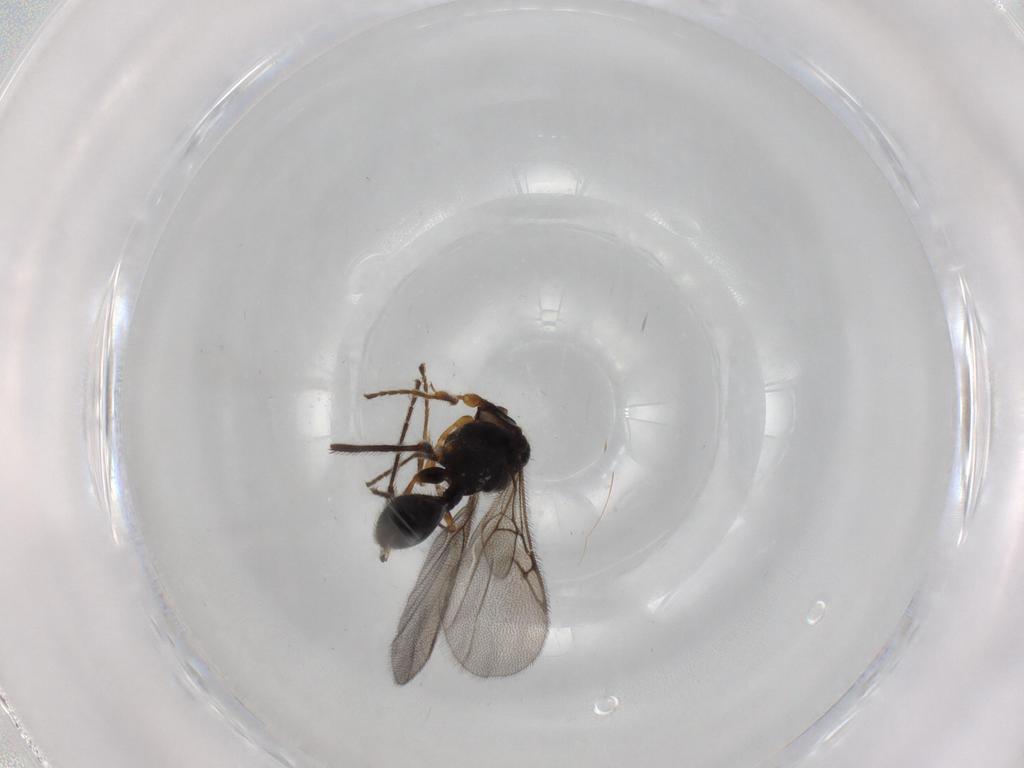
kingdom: Animalia
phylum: Arthropoda
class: Insecta
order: Hymenoptera
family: Diapriidae
